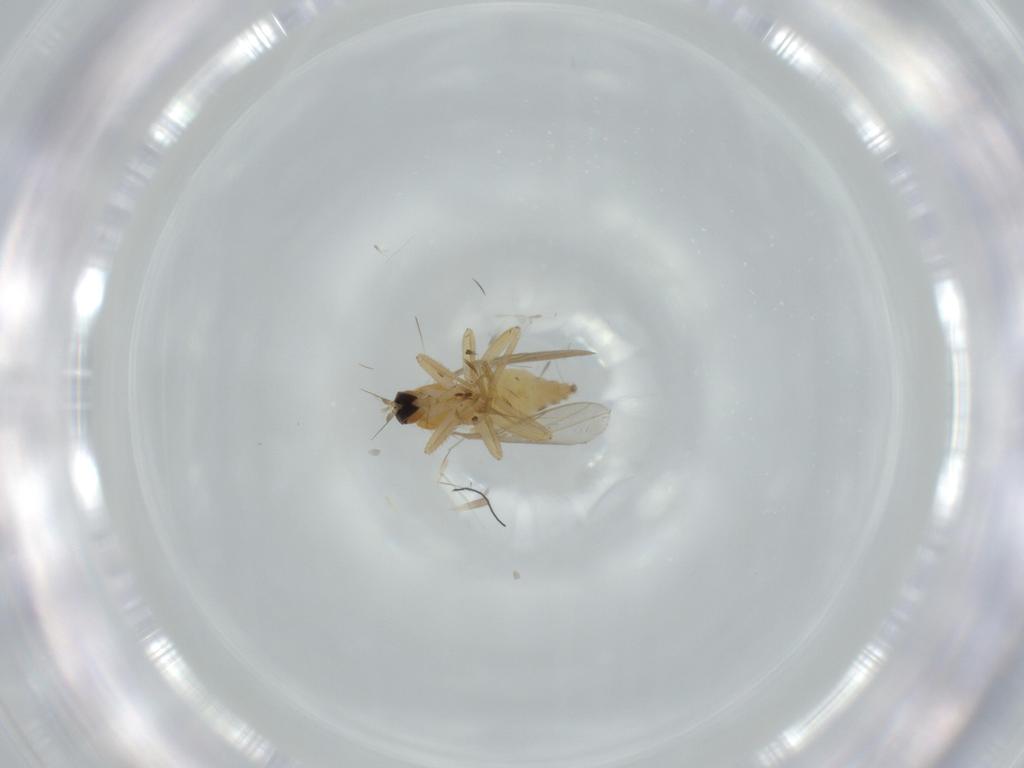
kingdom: Animalia
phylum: Arthropoda
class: Insecta
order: Diptera
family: Hybotidae
